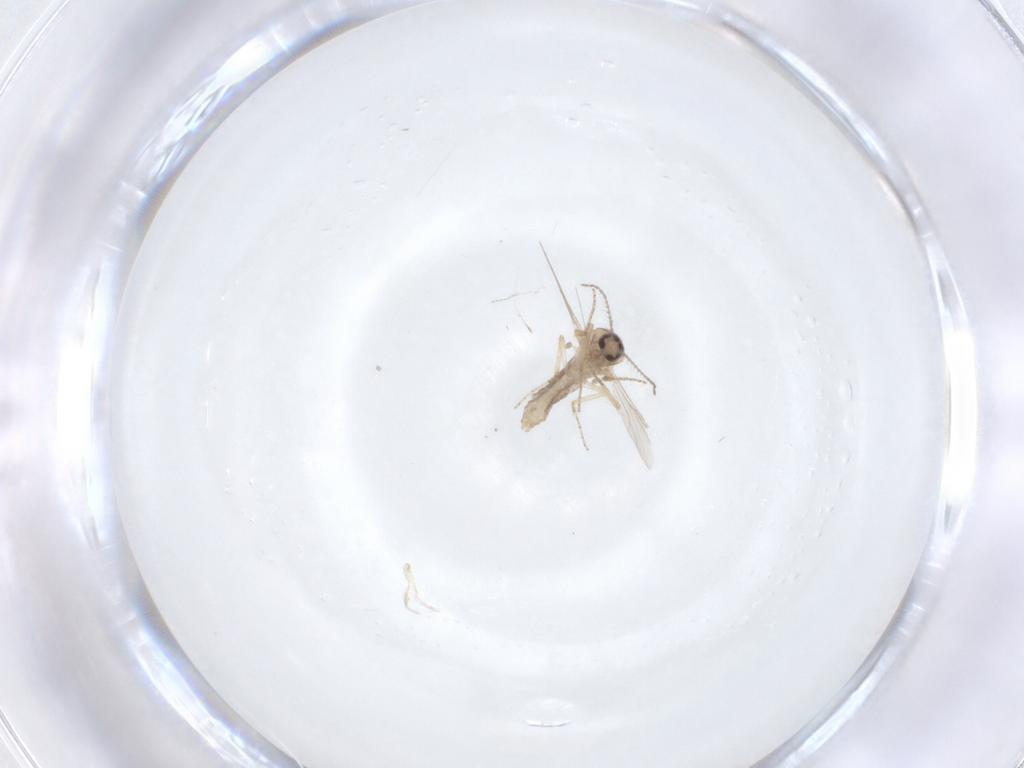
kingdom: Animalia
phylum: Arthropoda
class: Insecta
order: Diptera
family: Ceratopogonidae
